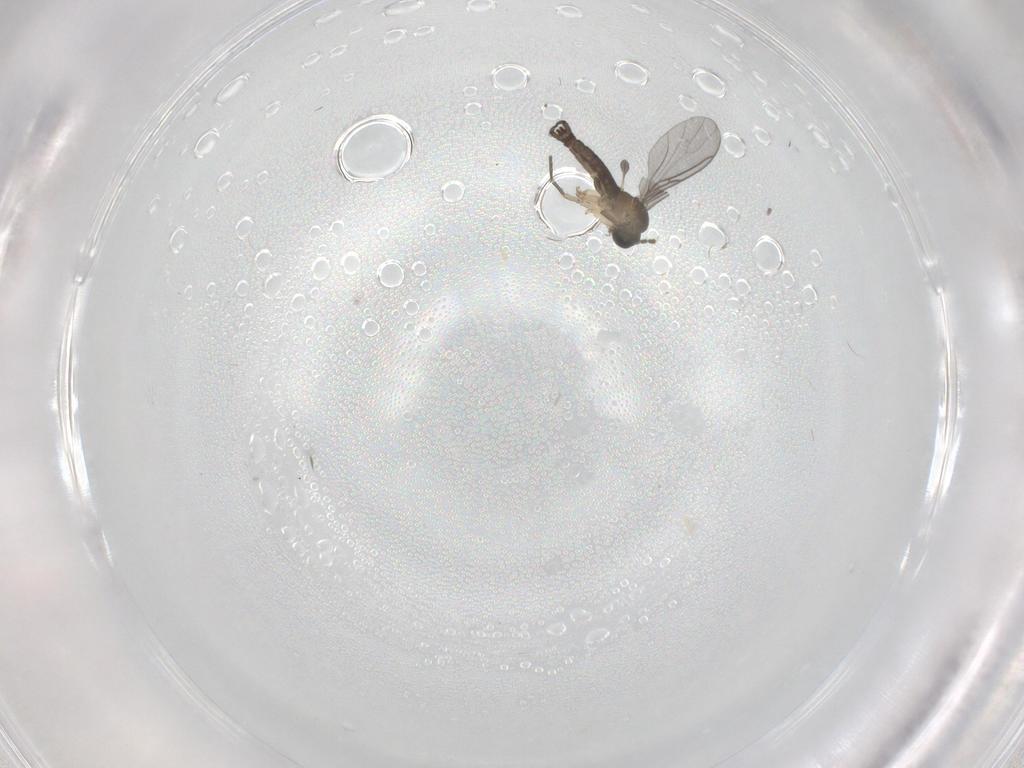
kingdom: Animalia
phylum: Arthropoda
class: Insecta
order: Diptera
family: Sciaridae
